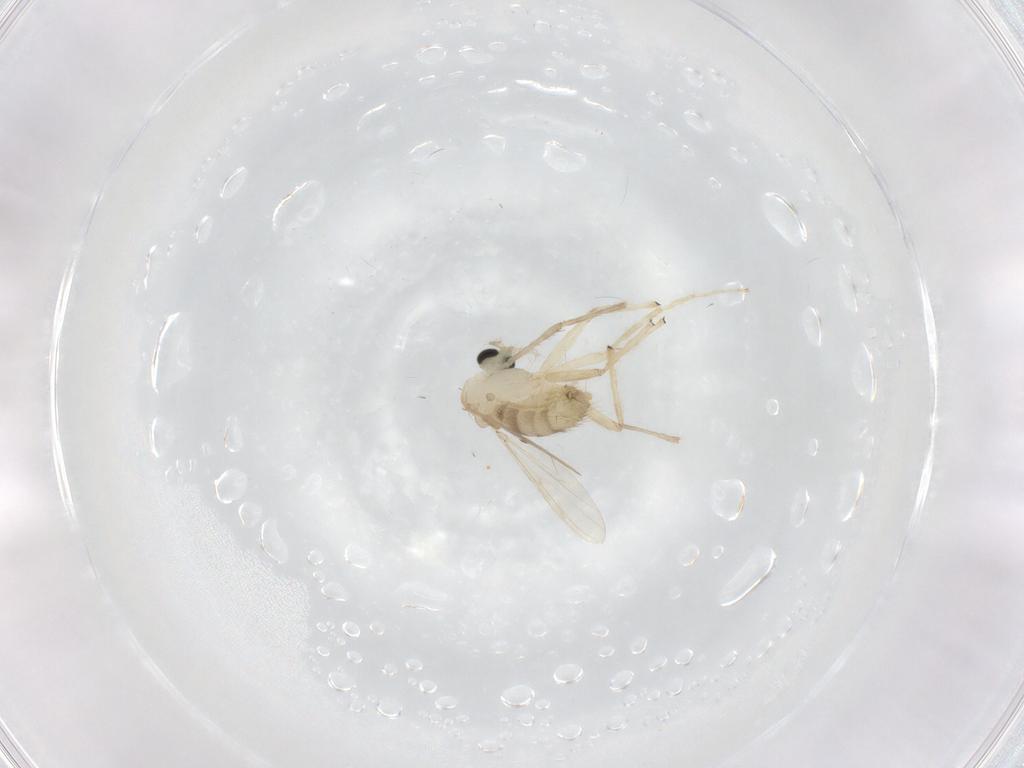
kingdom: Animalia
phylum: Arthropoda
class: Insecta
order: Diptera
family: Chironomidae
